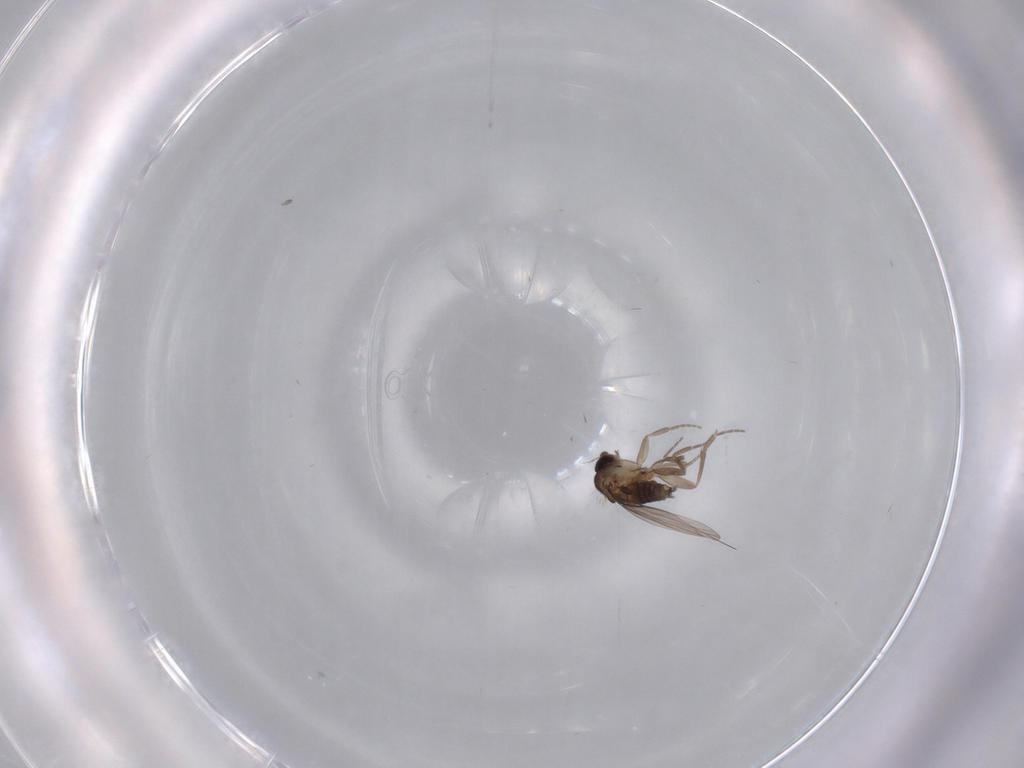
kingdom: Animalia
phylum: Arthropoda
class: Insecta
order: Diptera
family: Phoridae
